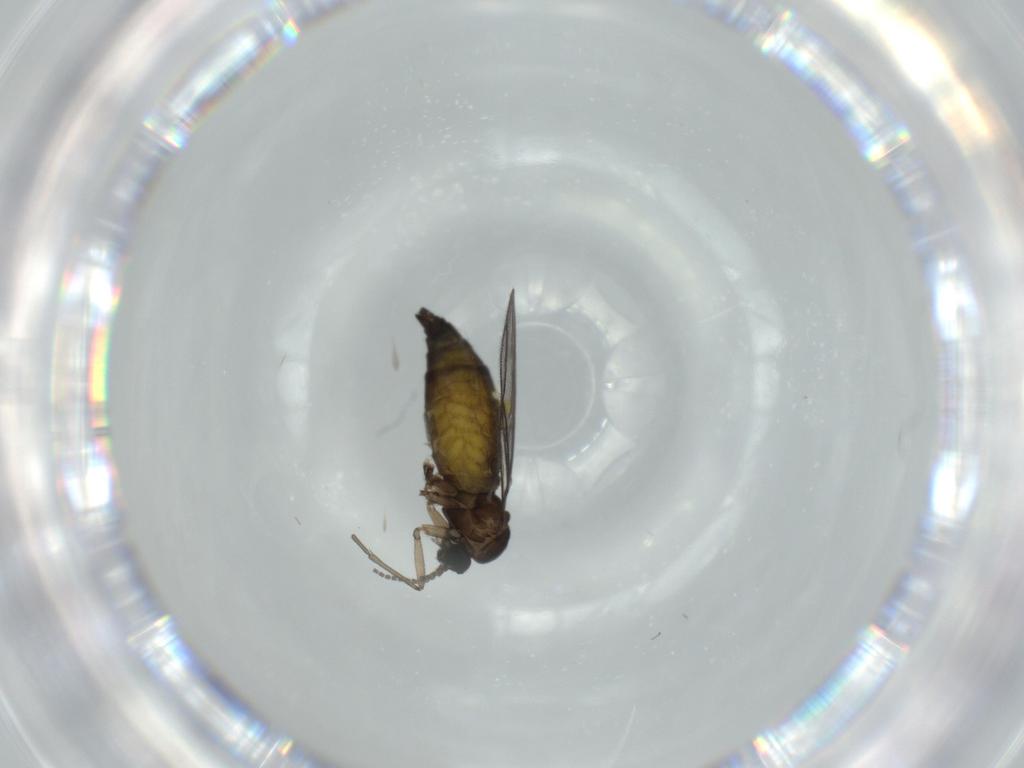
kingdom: Animalia
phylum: Arthropoda
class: Insecta
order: Diptera
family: Sciaridae
